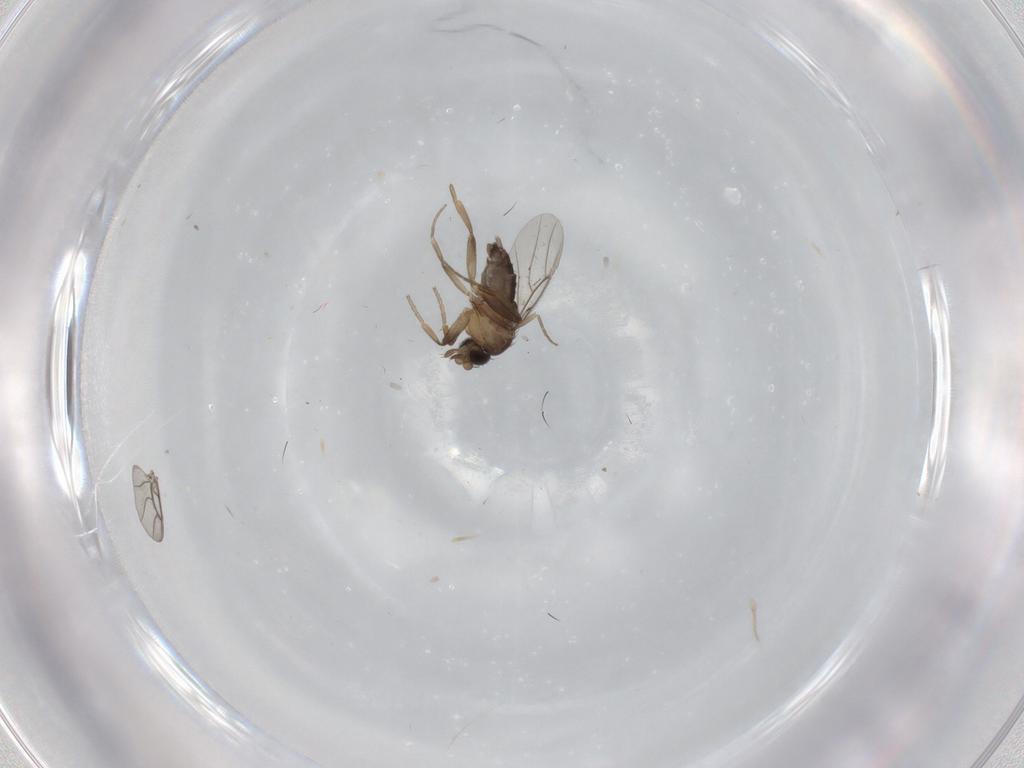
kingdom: Animalia
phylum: Arthropoda
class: Insecta
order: Diptera
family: Phoridae
